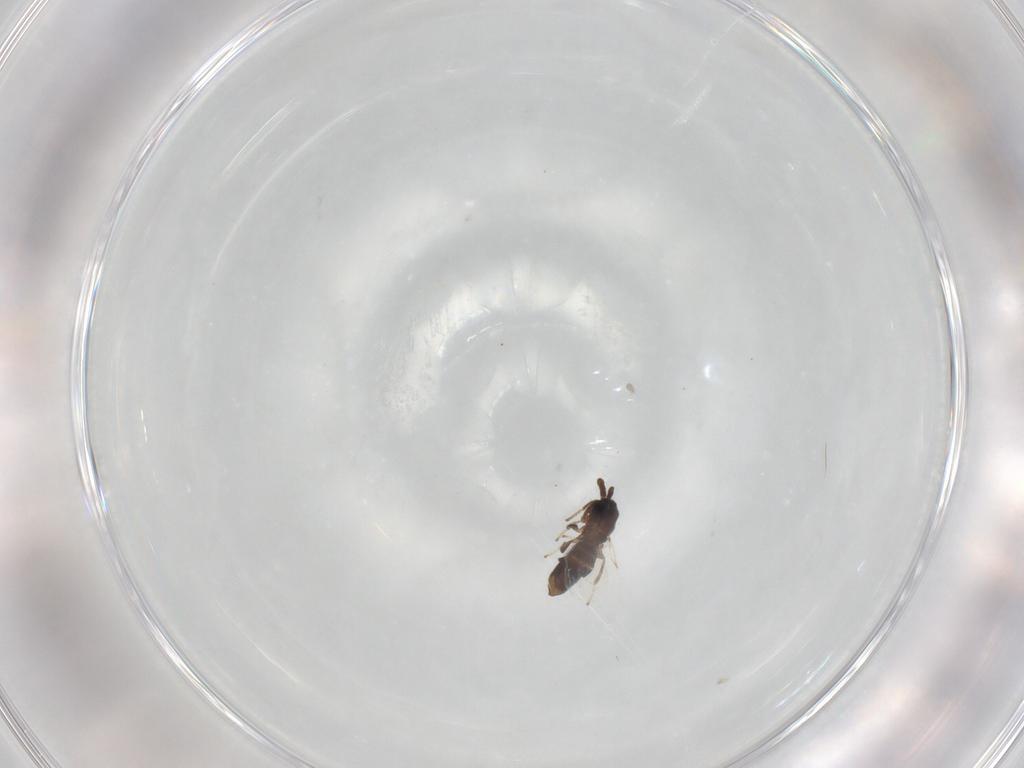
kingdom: Animalia
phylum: Arthropoda
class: Insecta
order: Diptera
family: Scatopsidae
